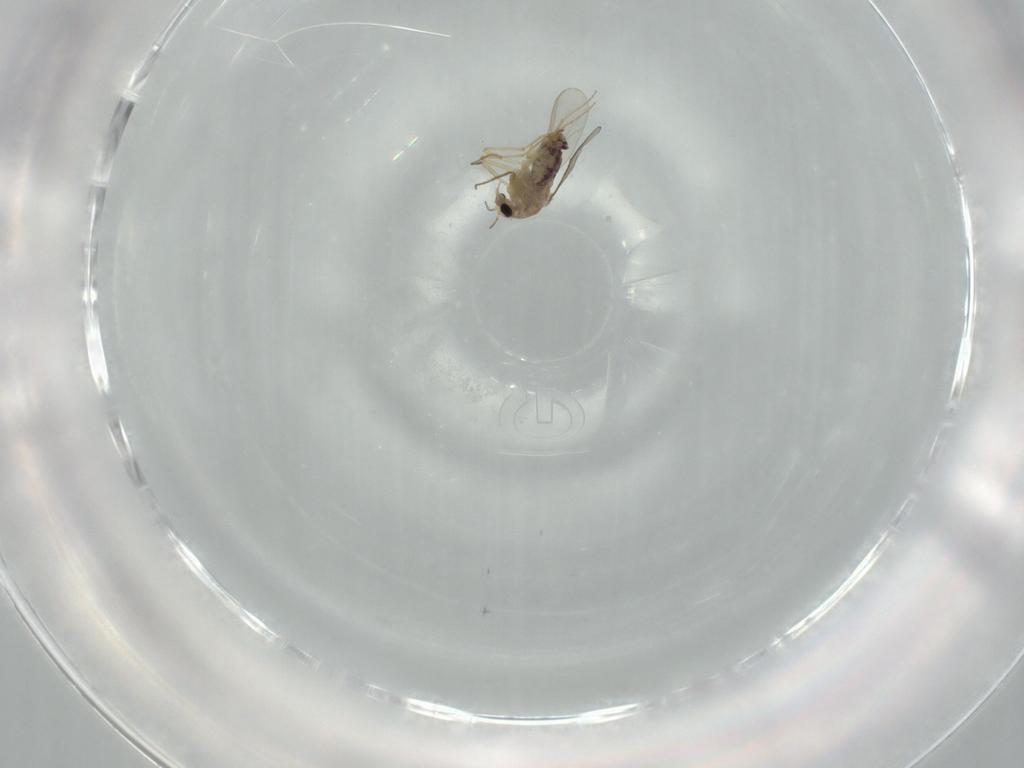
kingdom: Animalia
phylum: Arthropoda
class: Insecta
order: Diptera
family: Chironomidae
